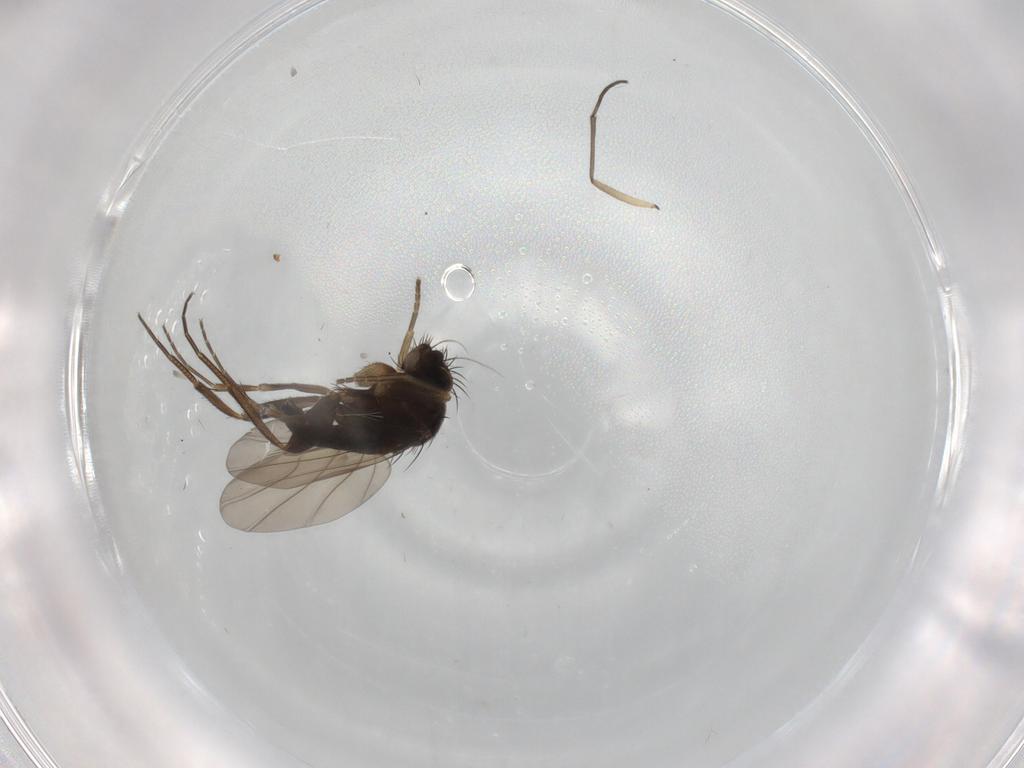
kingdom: Animalia
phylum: Arthropoda
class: Insecta
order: Diptera
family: Phoridae
